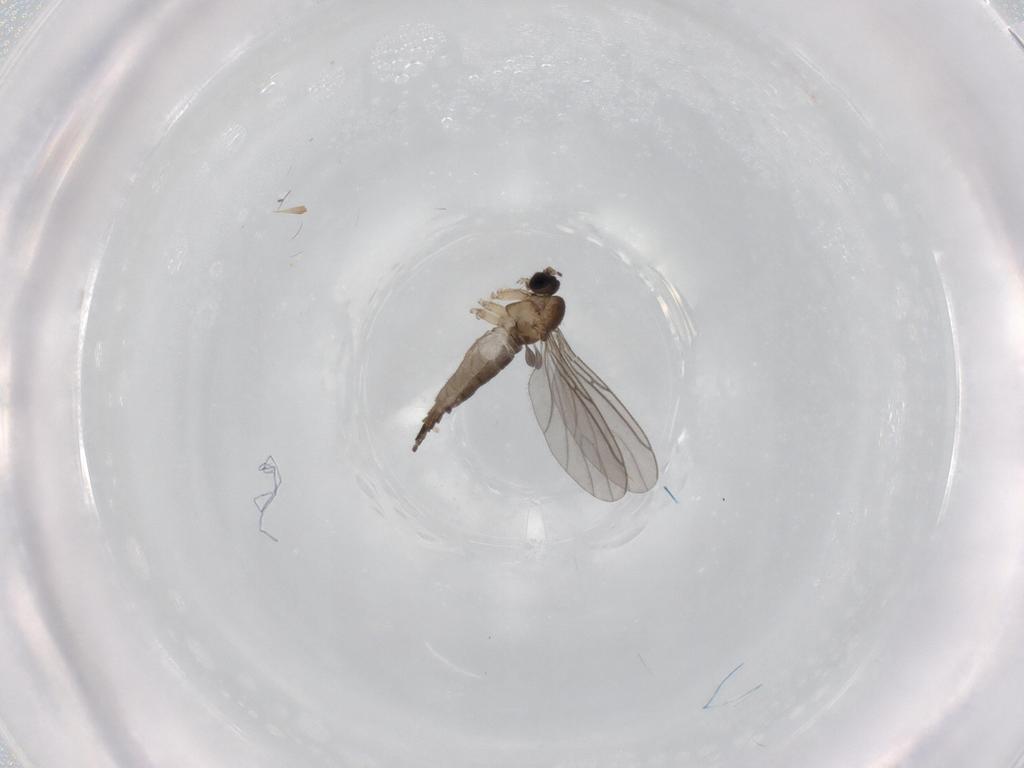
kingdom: Animalia
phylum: Arthropoda
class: Insecta
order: Diptera
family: Sciaridae
